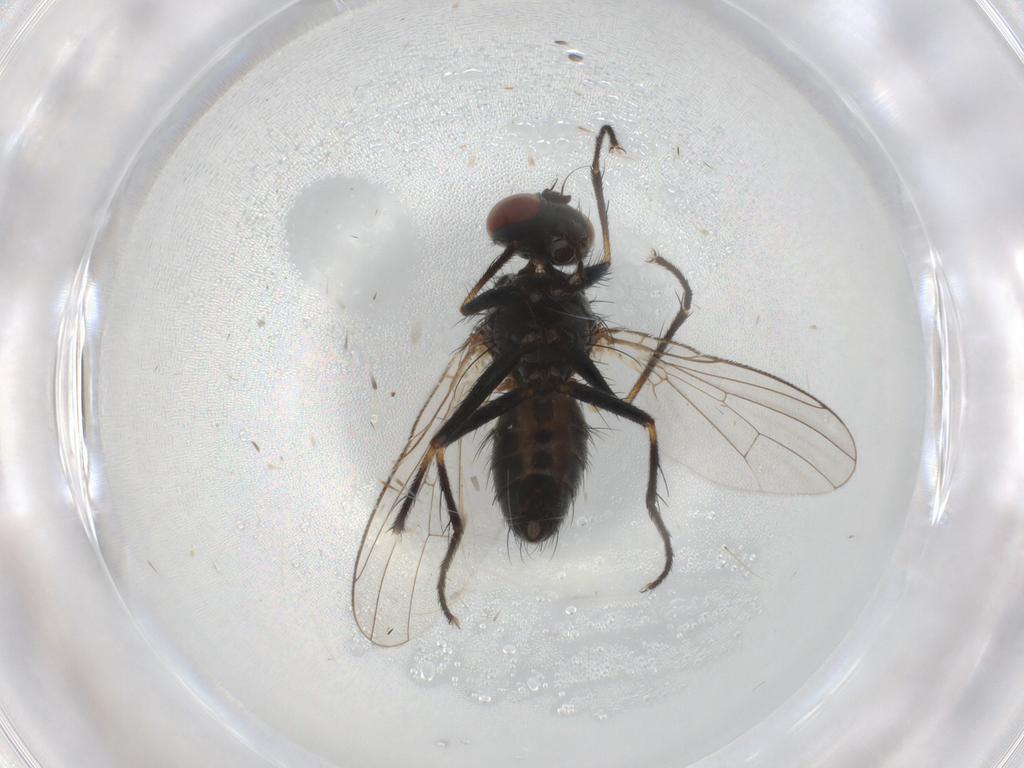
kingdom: Animalia
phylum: Arthropoda
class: Insecta
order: Diptera
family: Muscidae
